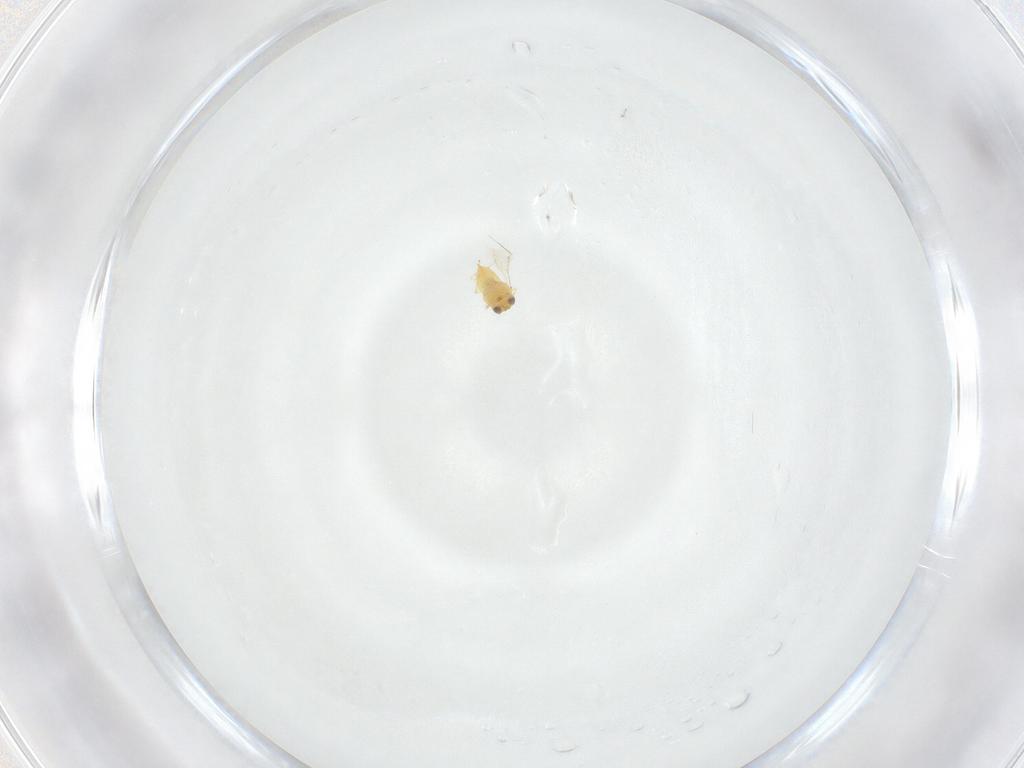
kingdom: Animalia
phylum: Arthropoda
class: Insecta
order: Hymenoptera
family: Aphelinidae
